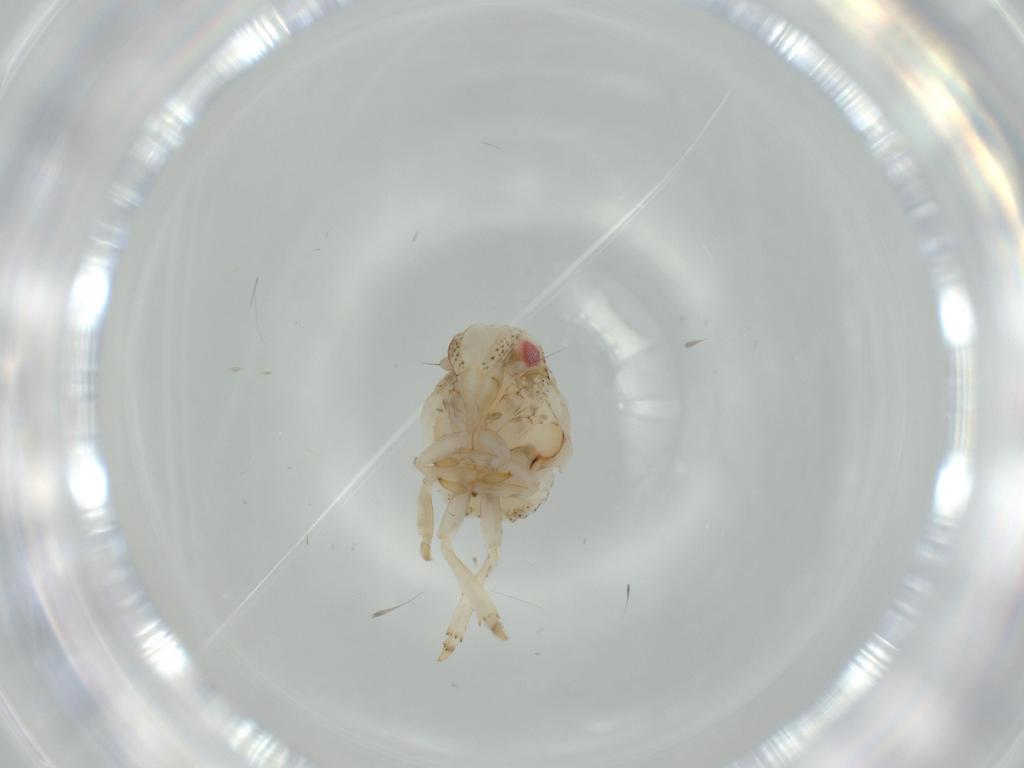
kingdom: Animalia
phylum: Arthropoda
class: Insecta
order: Hemiptera
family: Acanaloniidae
